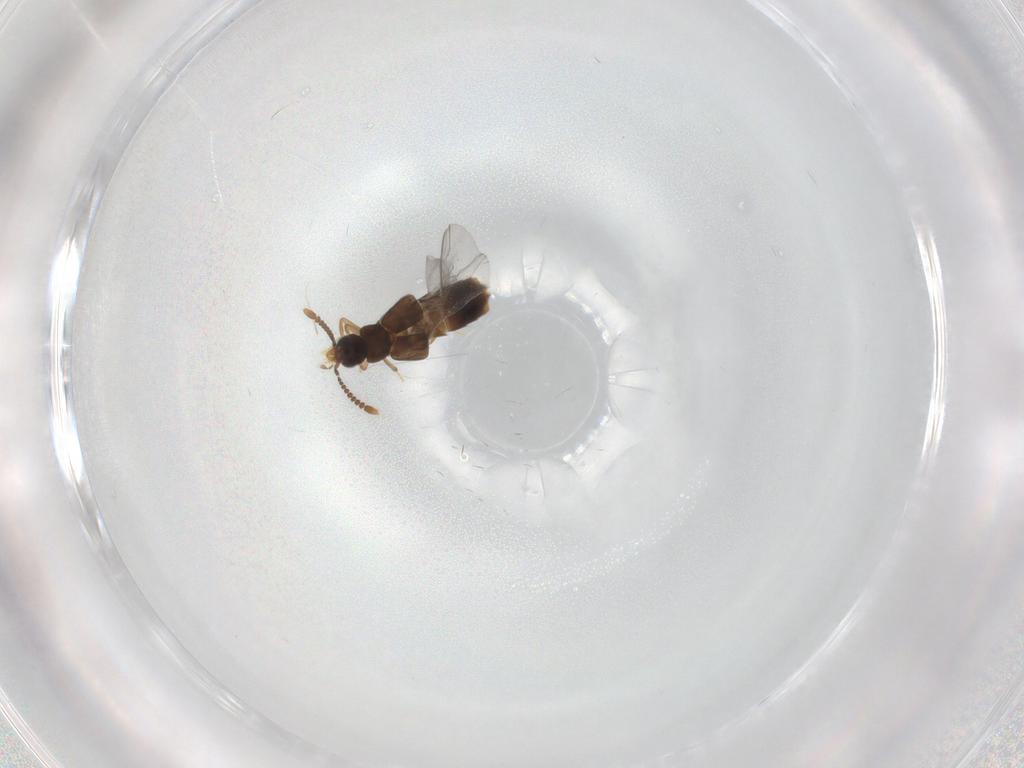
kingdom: Animalia
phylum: Arthropoda
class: Insecta
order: Coleoptera
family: Staphylinidae
